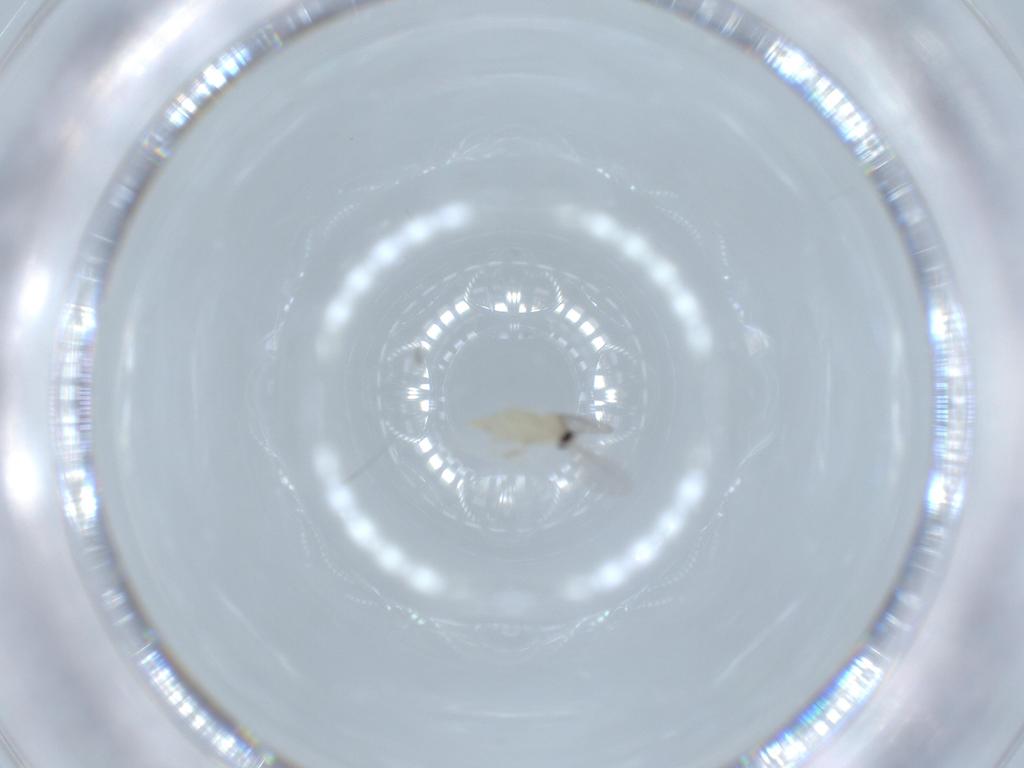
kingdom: Animalia
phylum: Arthropoda
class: Insecta
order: Diptera
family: Cecidomyiidae
